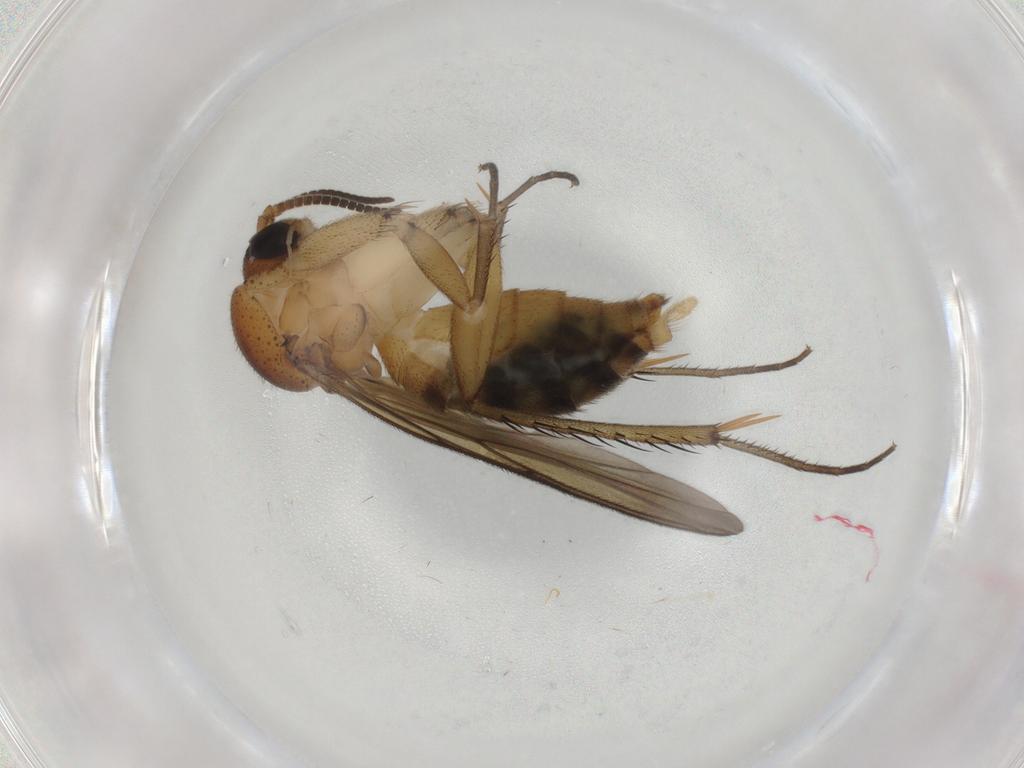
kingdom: Animalia
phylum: Arthropoda
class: Insecta
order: Diptera
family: Mycetophilidae
